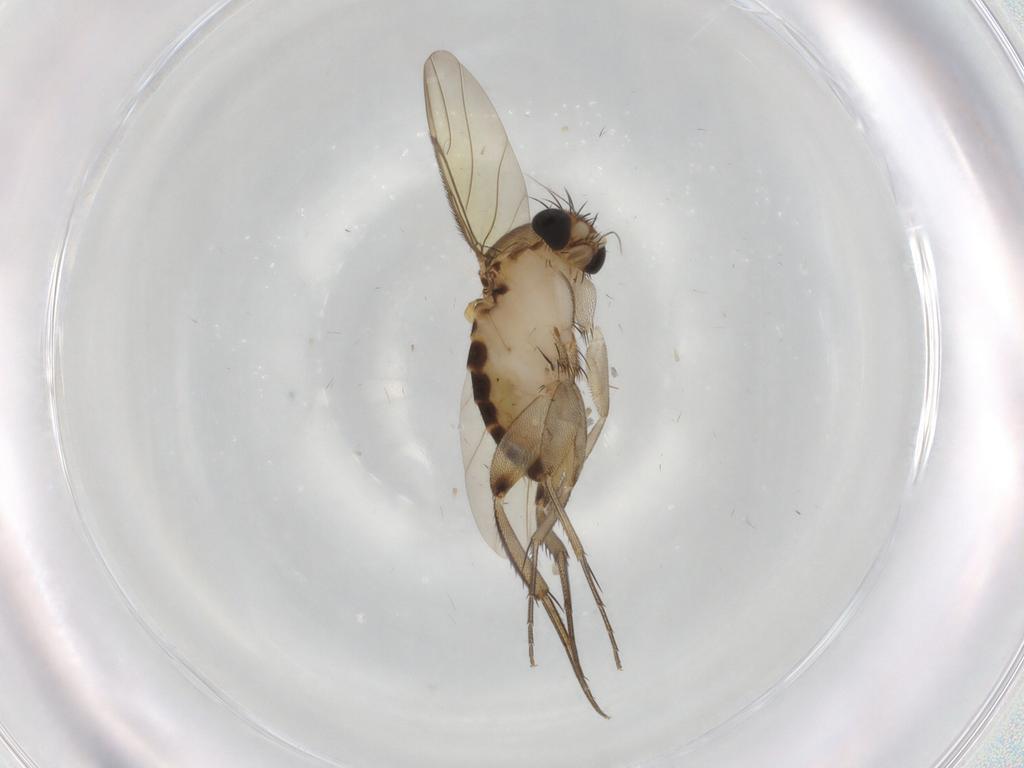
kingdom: Animalia
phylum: Arthropoda
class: Insecta
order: Diptera
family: Phoridae
